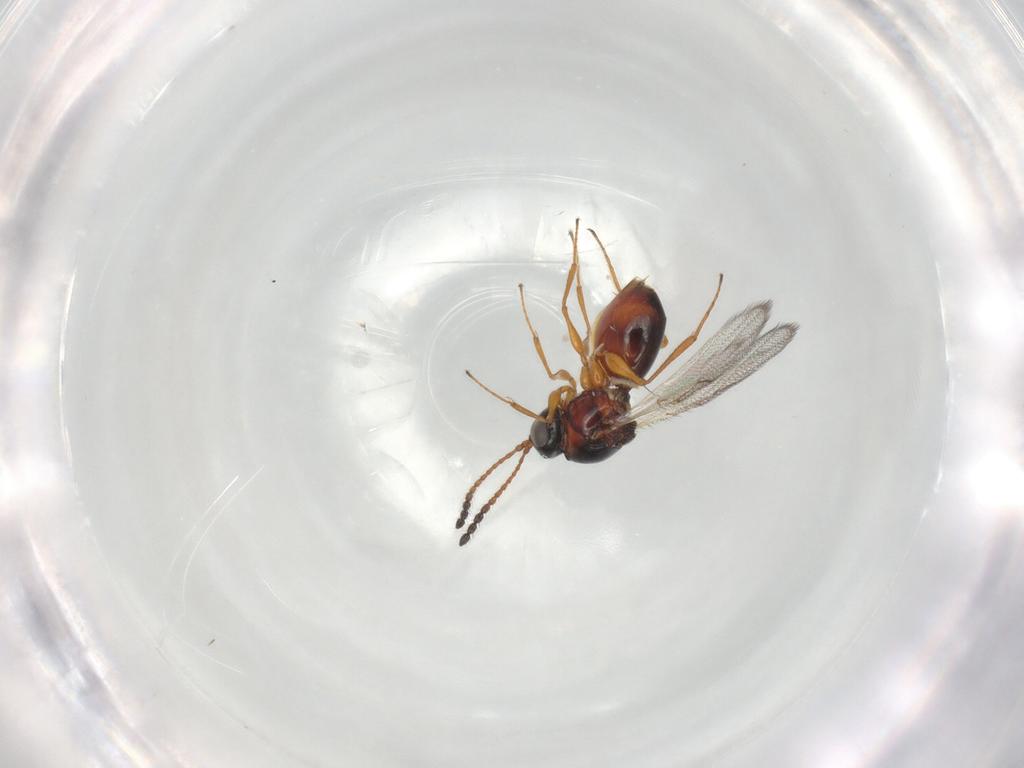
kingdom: Animalia
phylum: Arthropoda
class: Insecta
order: Hymenoptera
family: Figitidae
